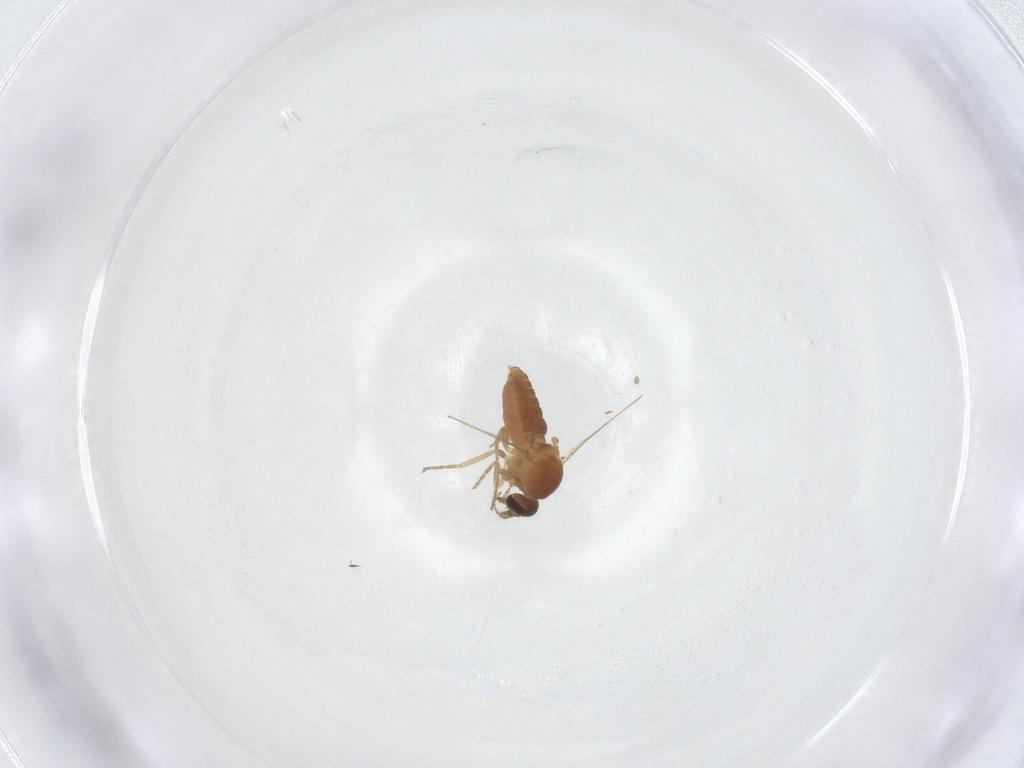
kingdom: Animalia
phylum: Arthropoda
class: Insecta
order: Diptera
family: Ceratopogonidae
